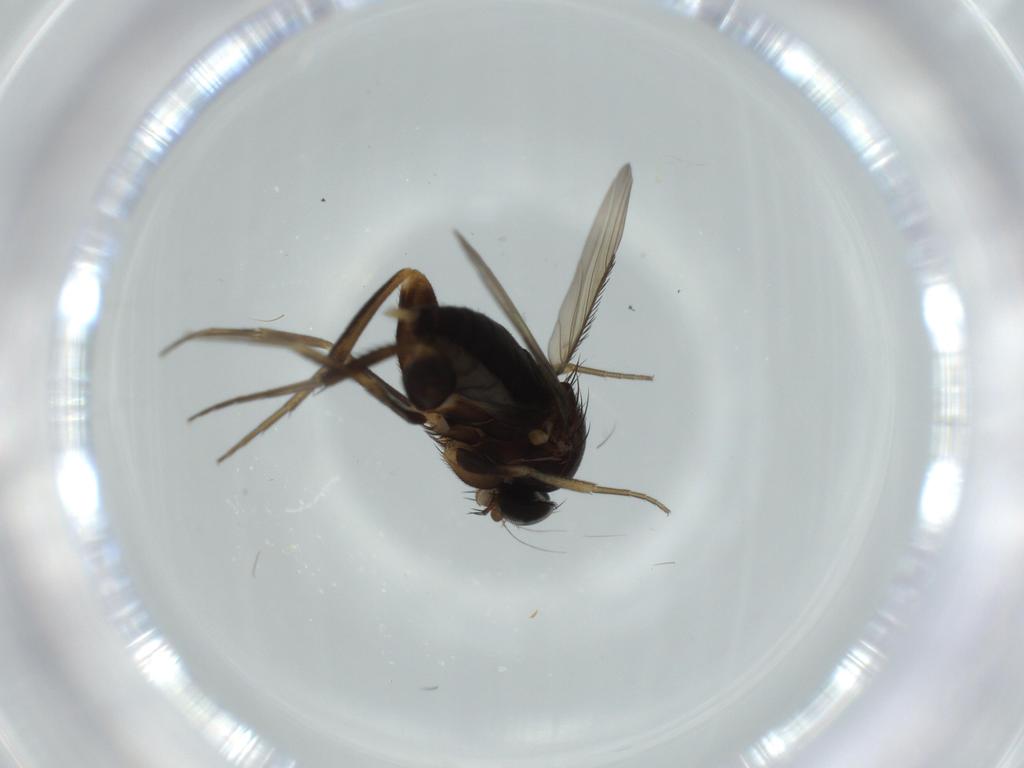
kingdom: Animalia
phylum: Arthropoda
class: Insecta
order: Diptera
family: Phoridae
